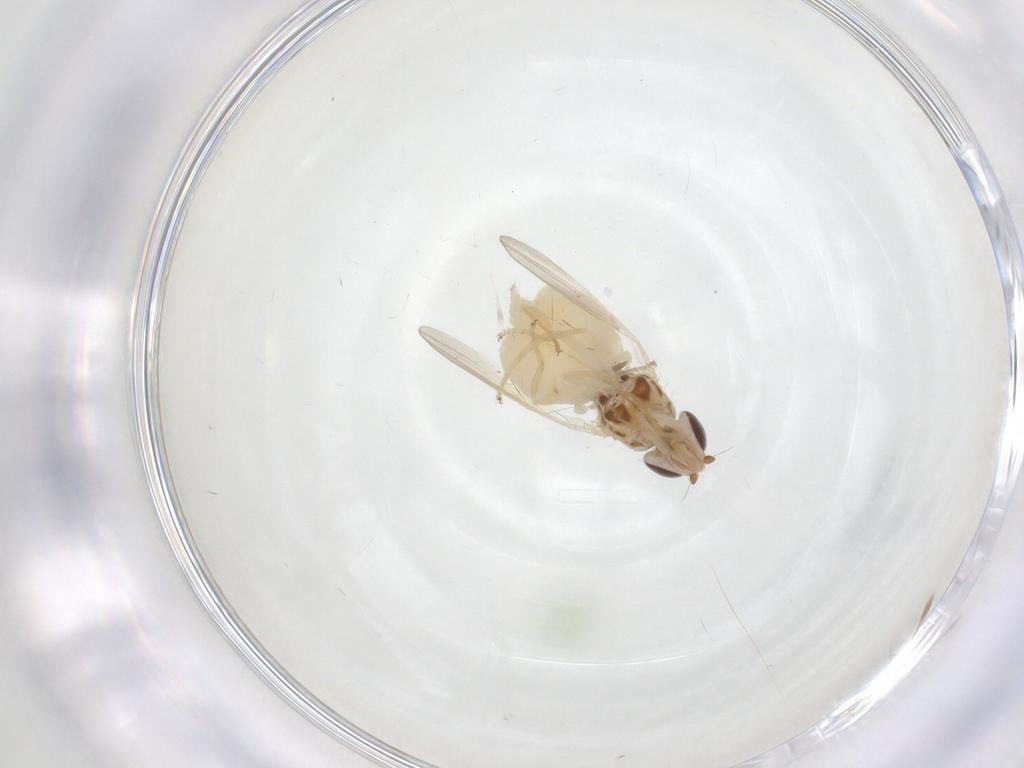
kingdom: Animalia
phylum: Arthropoda
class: Insecta
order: Diptera
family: Chloropidae
